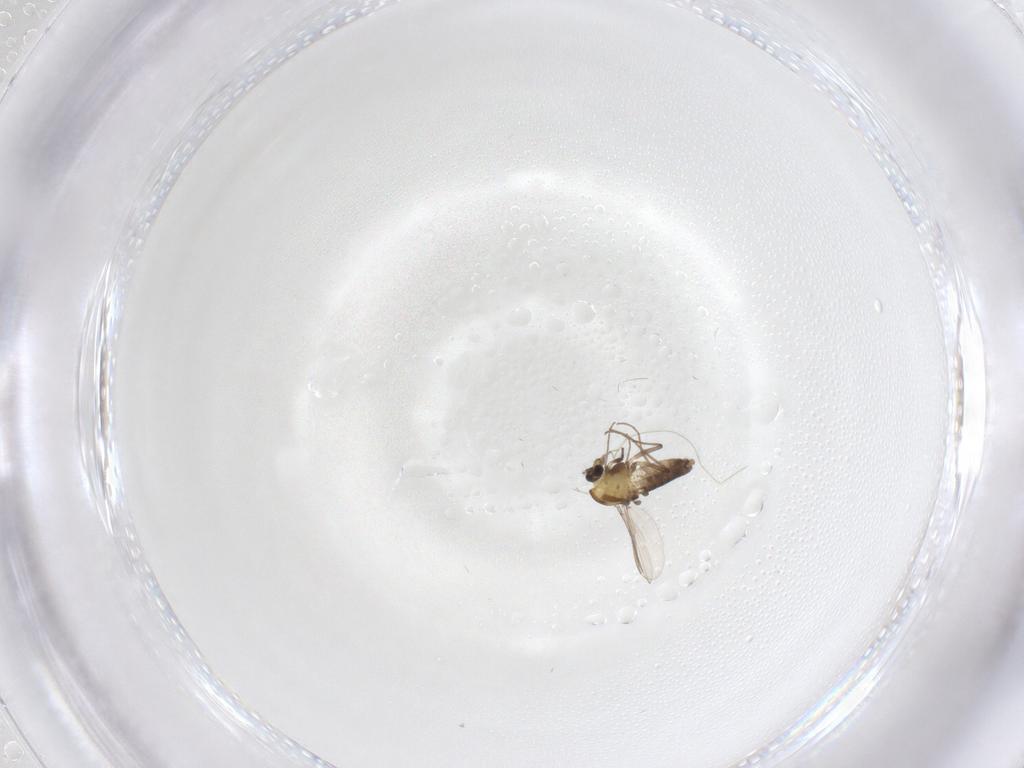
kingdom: Animalia
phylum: Arthropoda
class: Insecta
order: Diptera
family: Chironomidae
